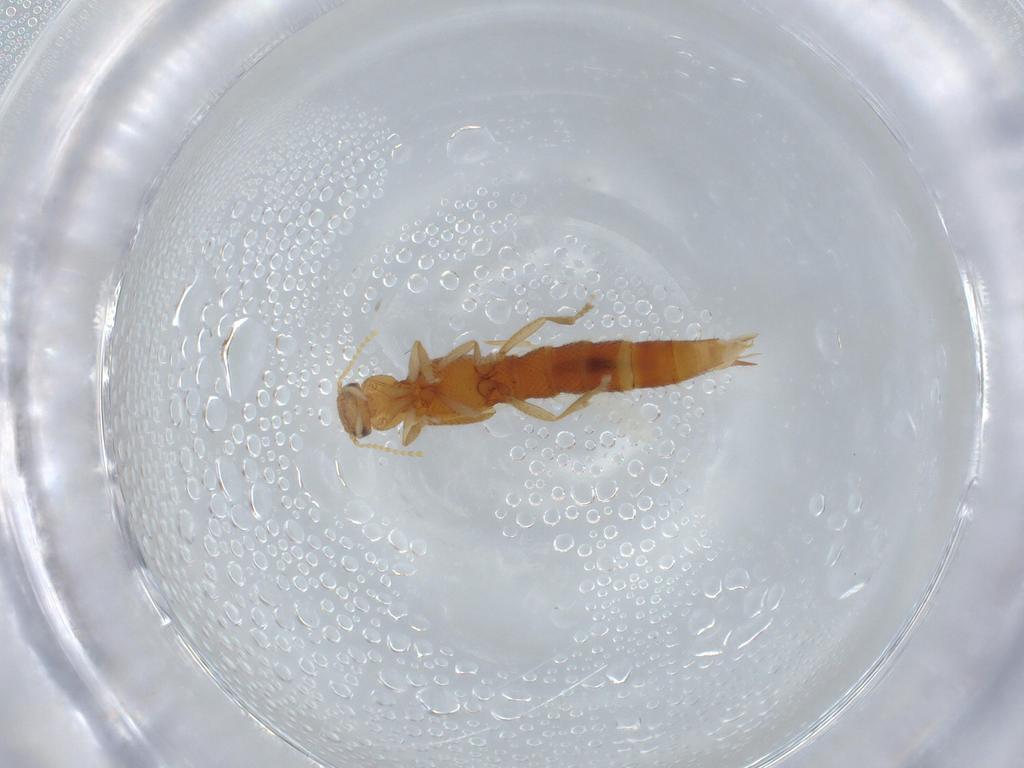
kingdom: Animalia
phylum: Arthropoda
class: Insecta
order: Coleoptera
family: Staphylinidae
